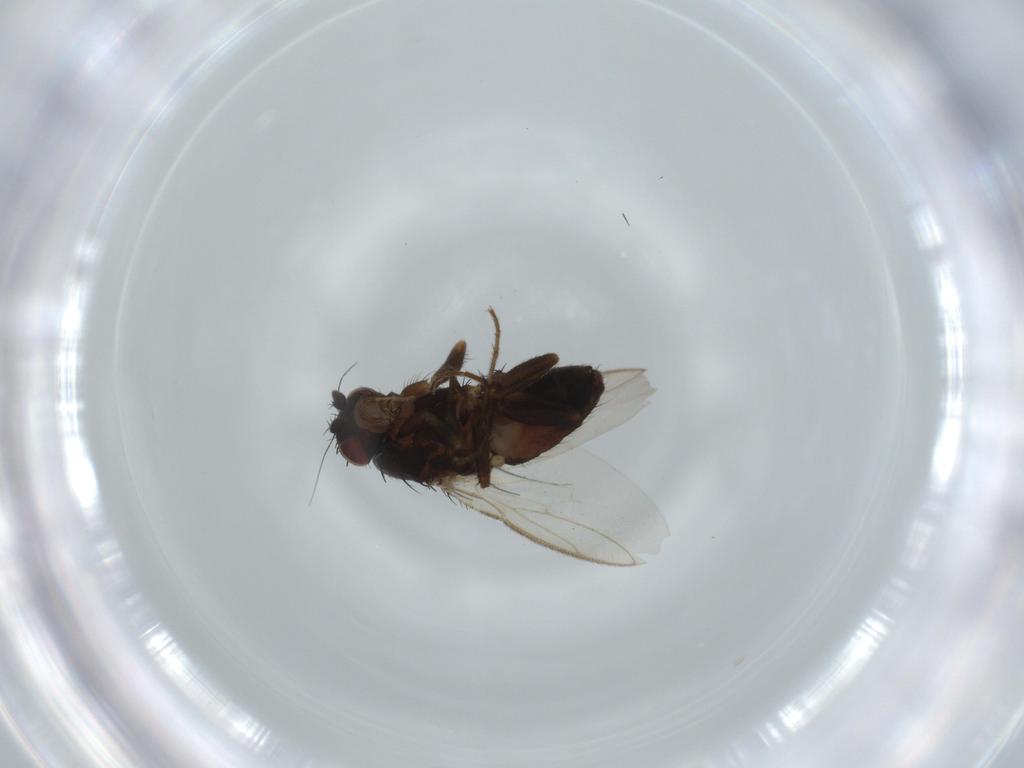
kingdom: Animalia
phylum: Arthropoda
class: Insecta
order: Diptera
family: Sphaeroceridae
